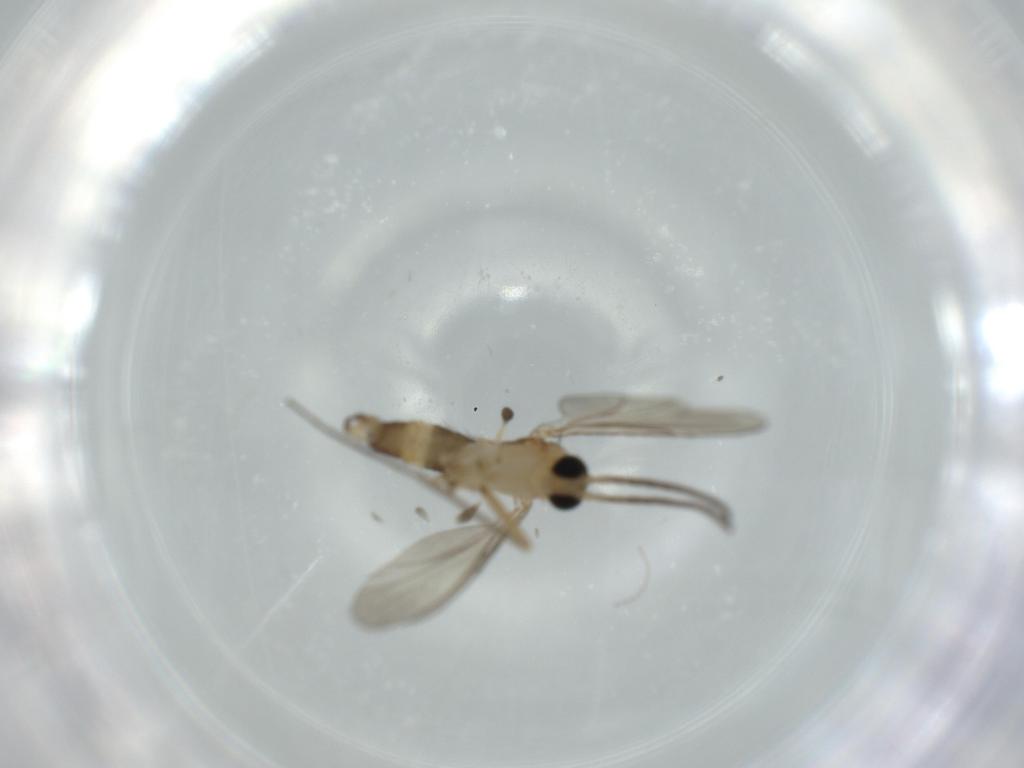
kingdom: Animalia
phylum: Arthropoda
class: Insecta
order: Diptera
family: Sciaridae
